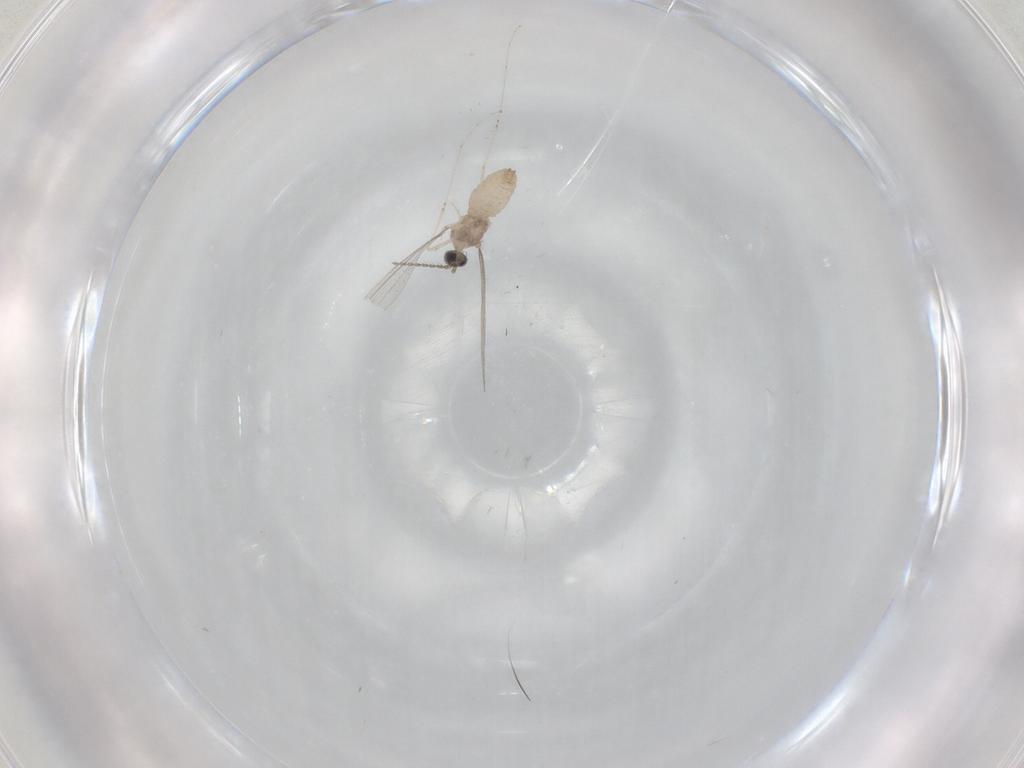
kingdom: Animalia
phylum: Arthropoda
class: Insecta
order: Diptera
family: Cecidomyiidae
